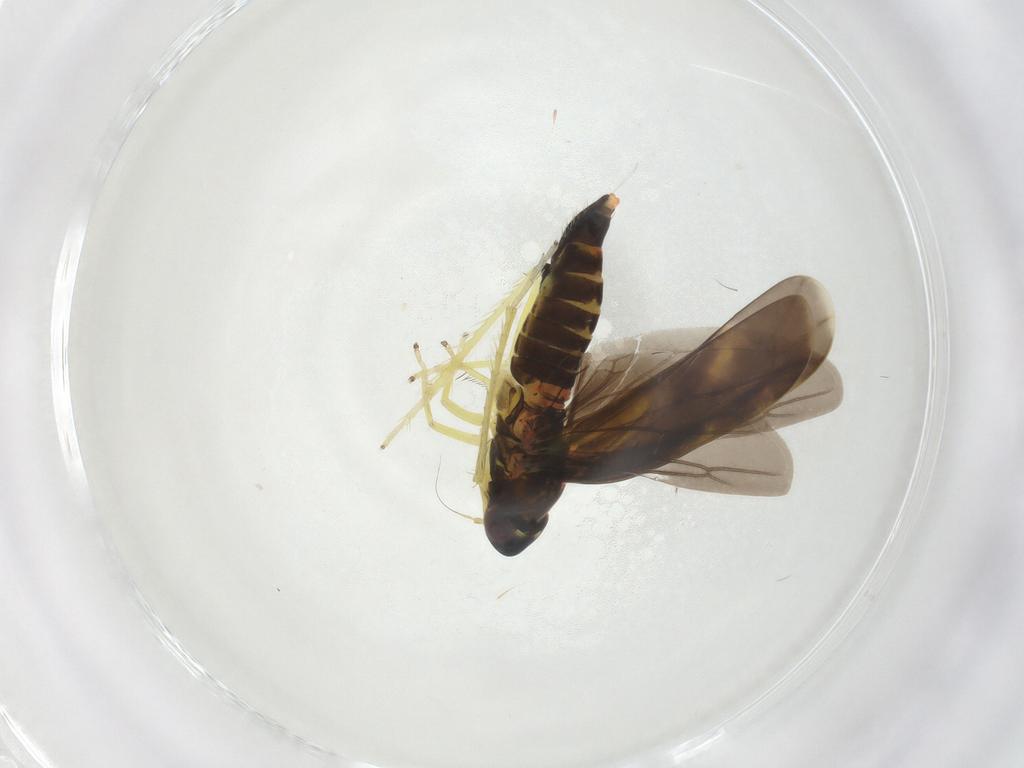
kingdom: Animalia
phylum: Arthropoda
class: Insecta
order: Hemiptera
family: Cicadellidae
